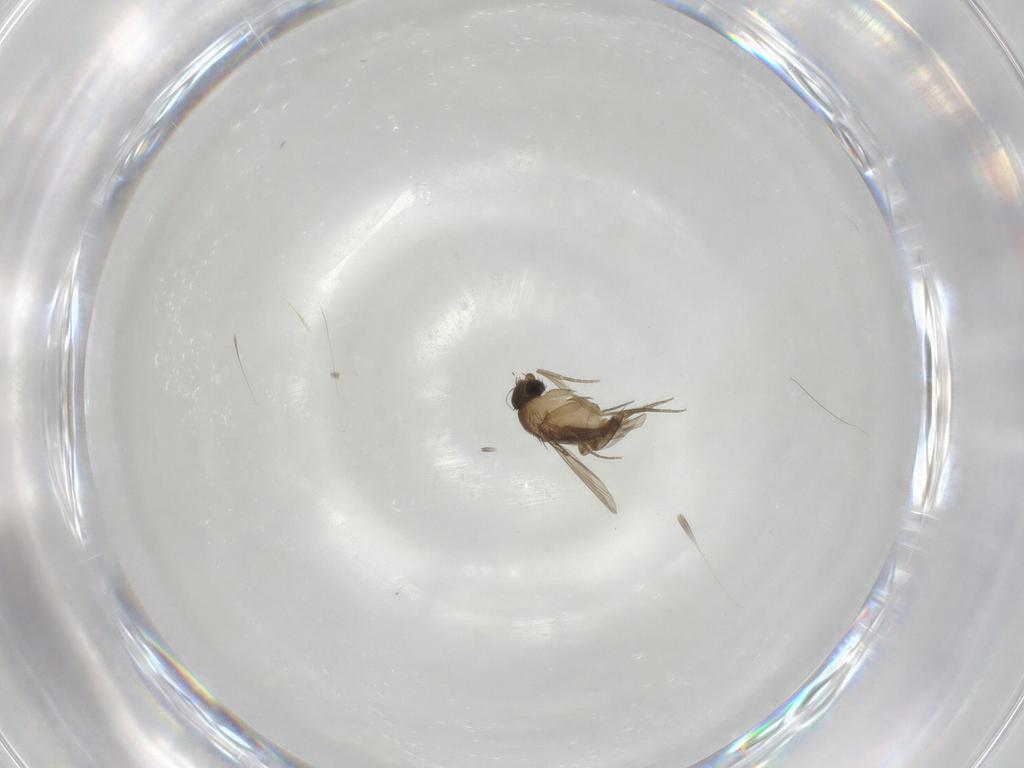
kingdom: Animalia
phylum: Arthropoda
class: Insecta
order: Diptera
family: Phoridae
